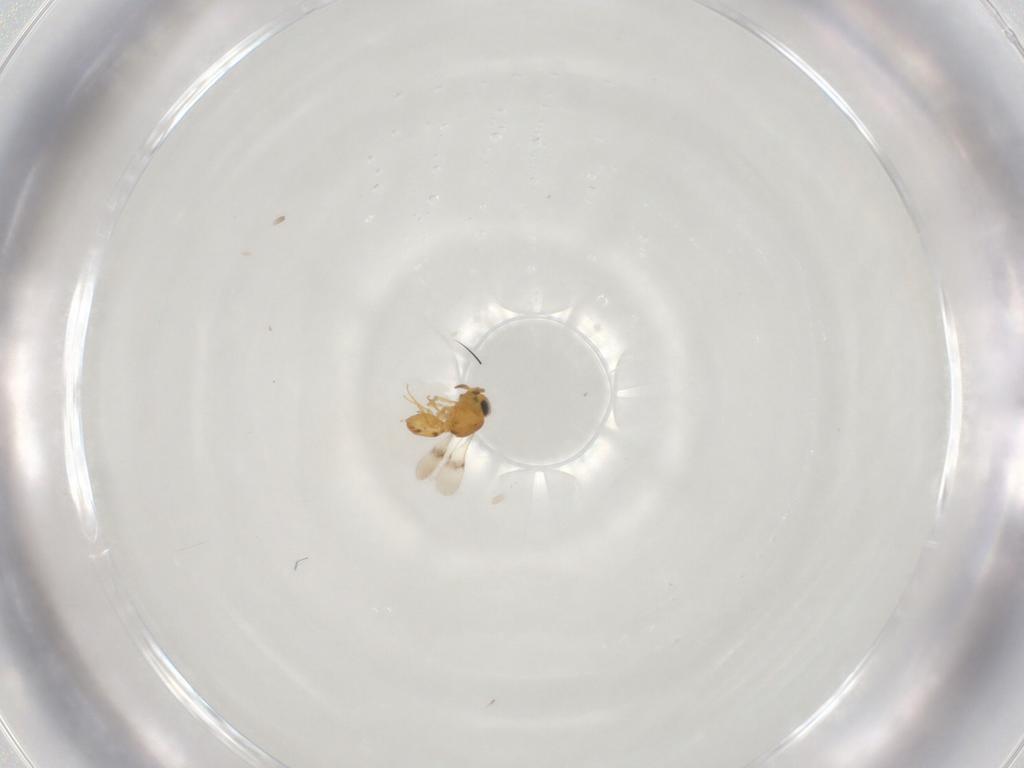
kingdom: Animalia
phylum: Arthropoda
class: Insecta
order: Hymenoptera
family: Scelionidae
